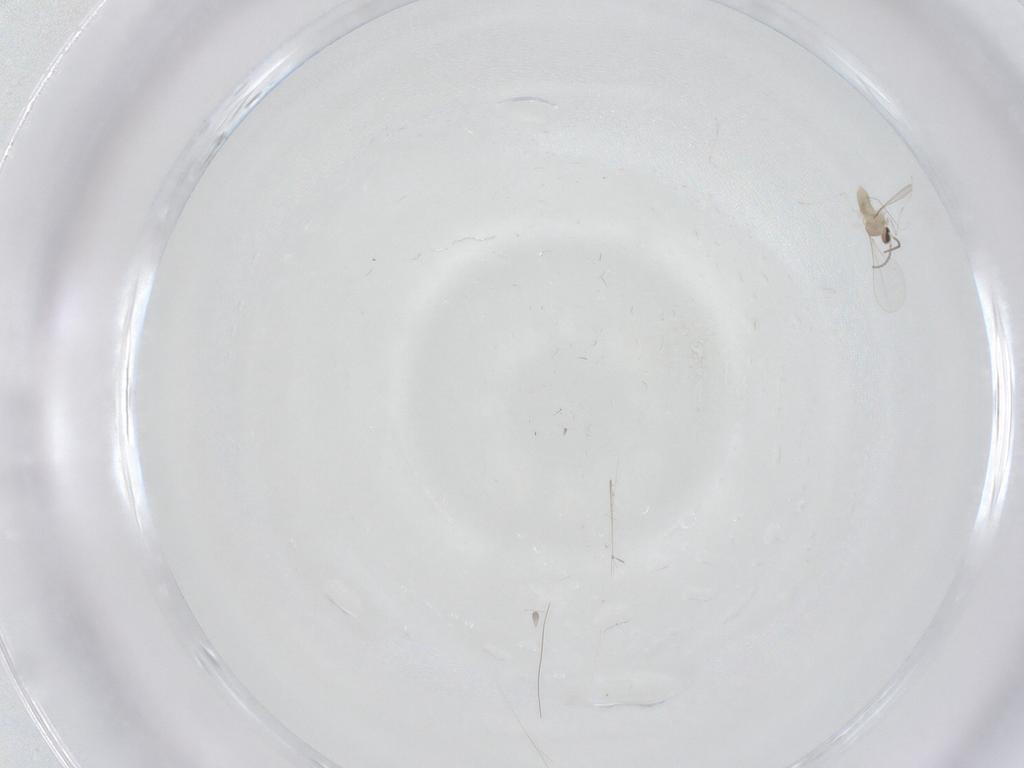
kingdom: Animalia
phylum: Arthropoda
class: Insecta
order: Diptera
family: Cecidomyiidae
